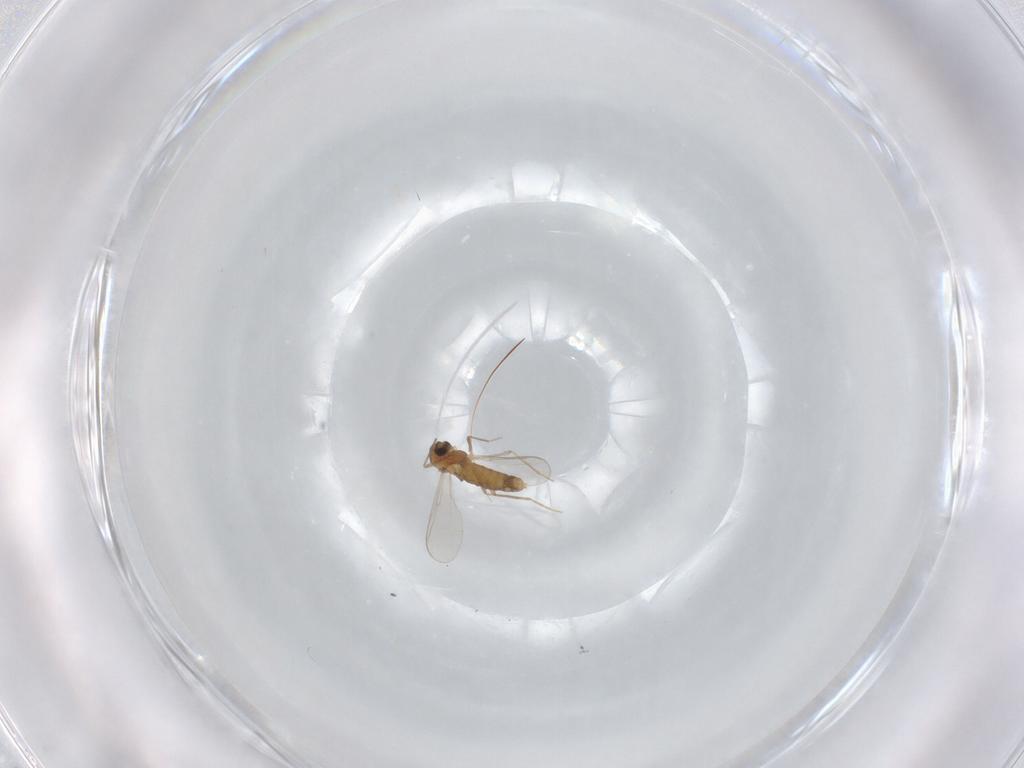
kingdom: Animalia
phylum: Arthropoda
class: Insecta
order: Diptera
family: Chironomidae
